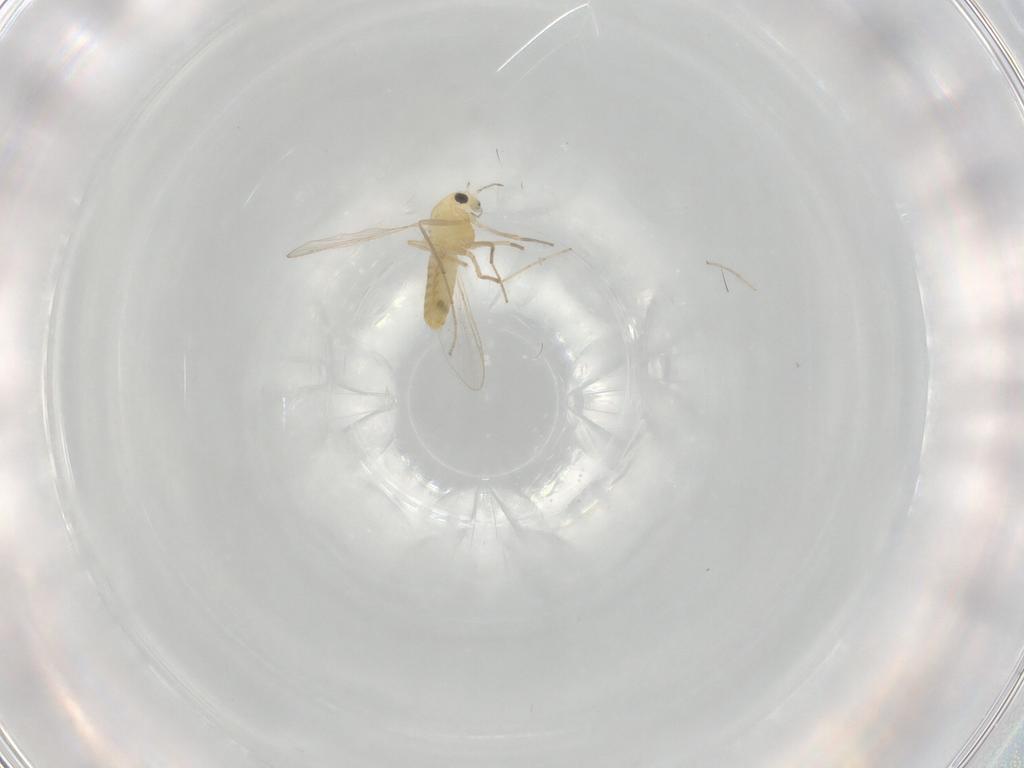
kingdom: Animalia
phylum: Arthropoda
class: Insecta
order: Diptera
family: Chironomidae
